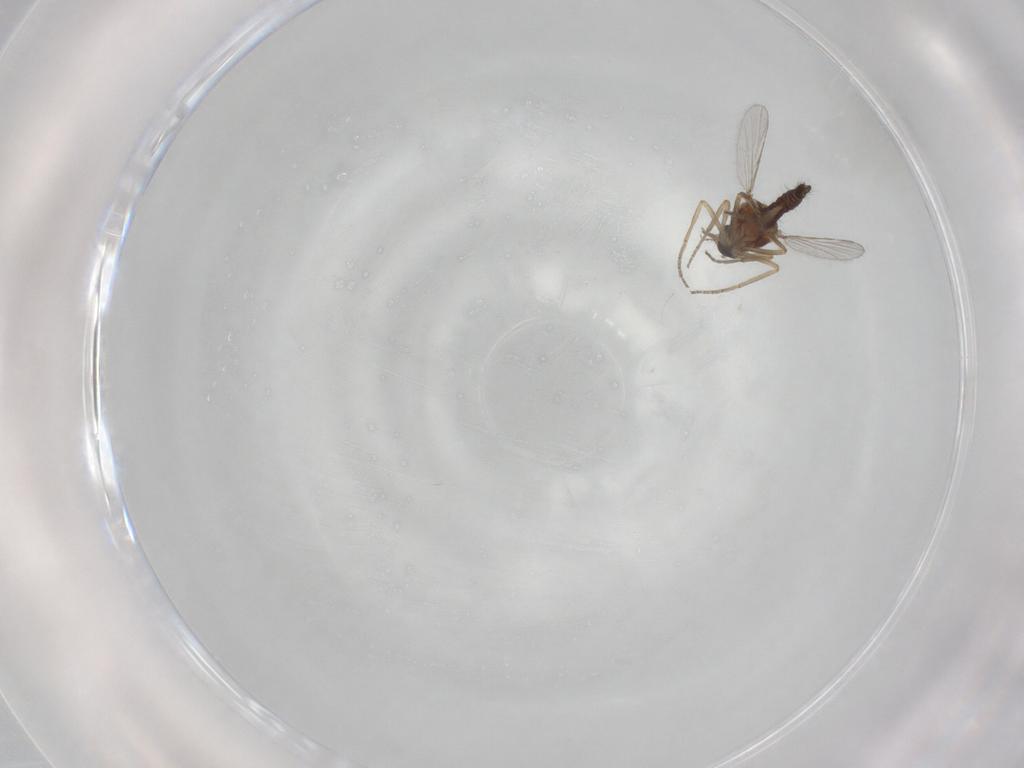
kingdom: Animalia
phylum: Arthropoda
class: Insecta
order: Diptera
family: Ceratopogonidae
